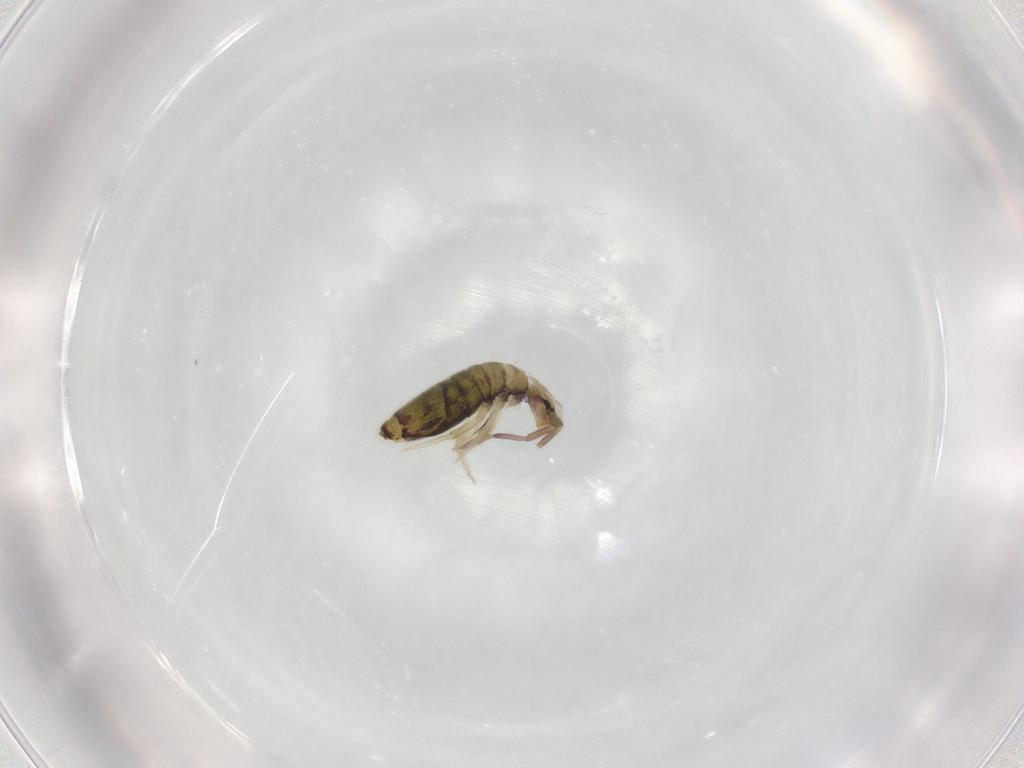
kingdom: Animalia
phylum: Arthropoda
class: Collembola
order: Entomobryomorpha
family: Entomobryidae
